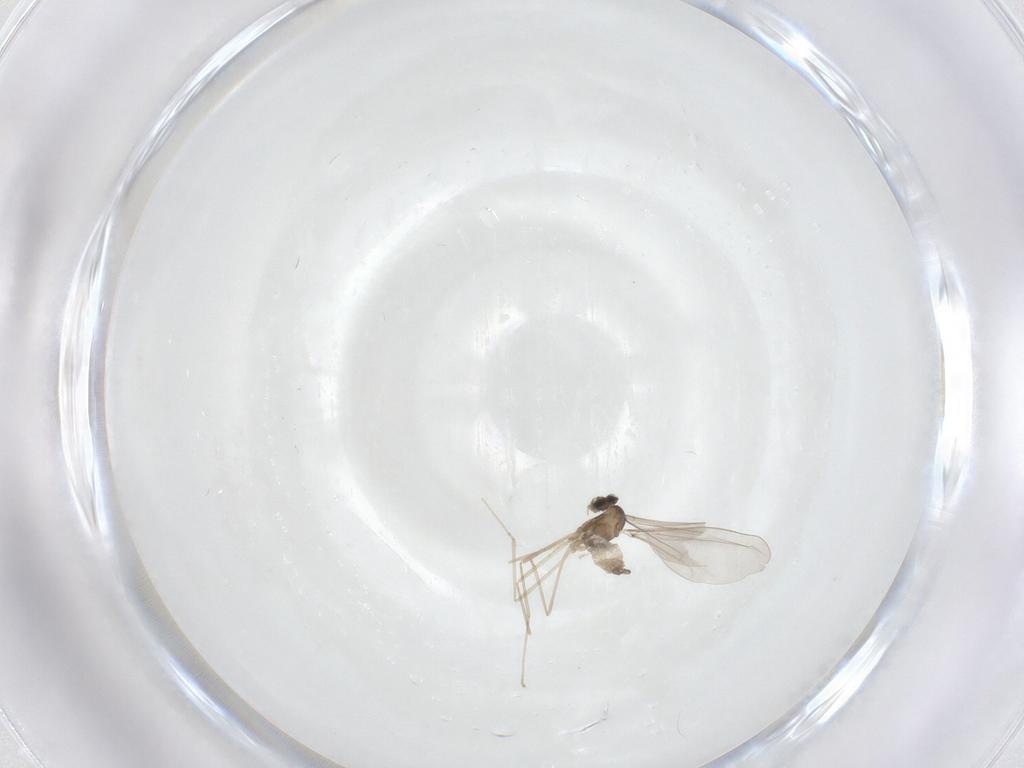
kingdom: Animalia
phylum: Arthropoda
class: Insecta
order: Diptera
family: Cecidomyiidae
